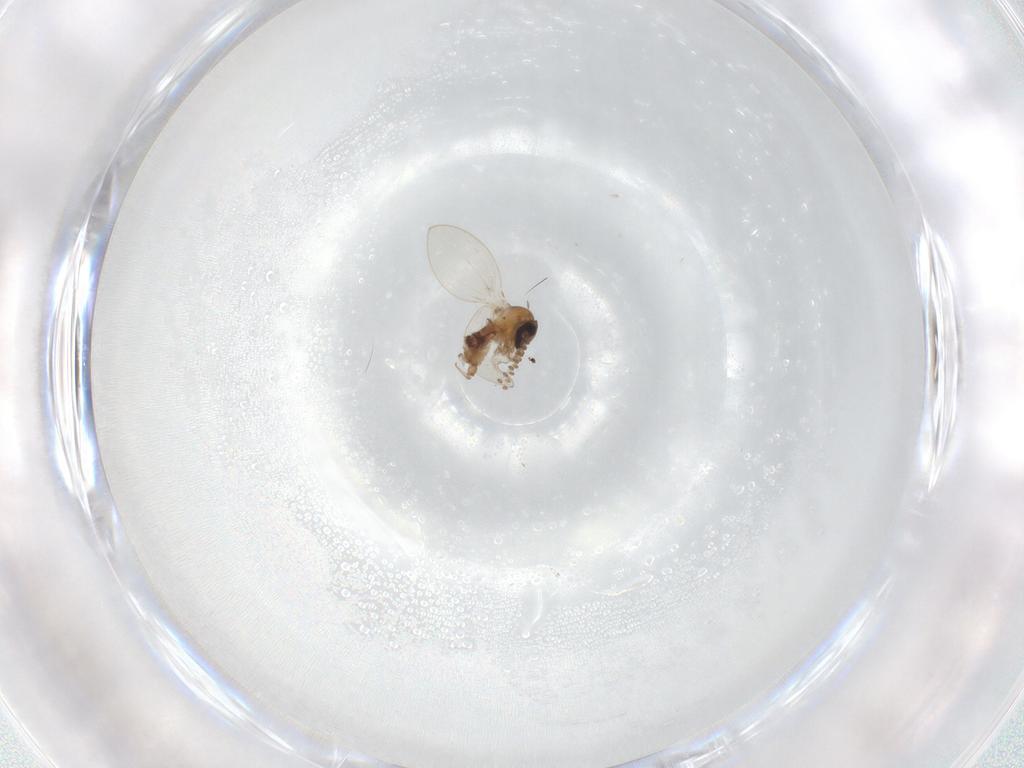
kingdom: Animalia
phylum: Arthropoda
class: Insecta
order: Diptera
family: Psychodidae
